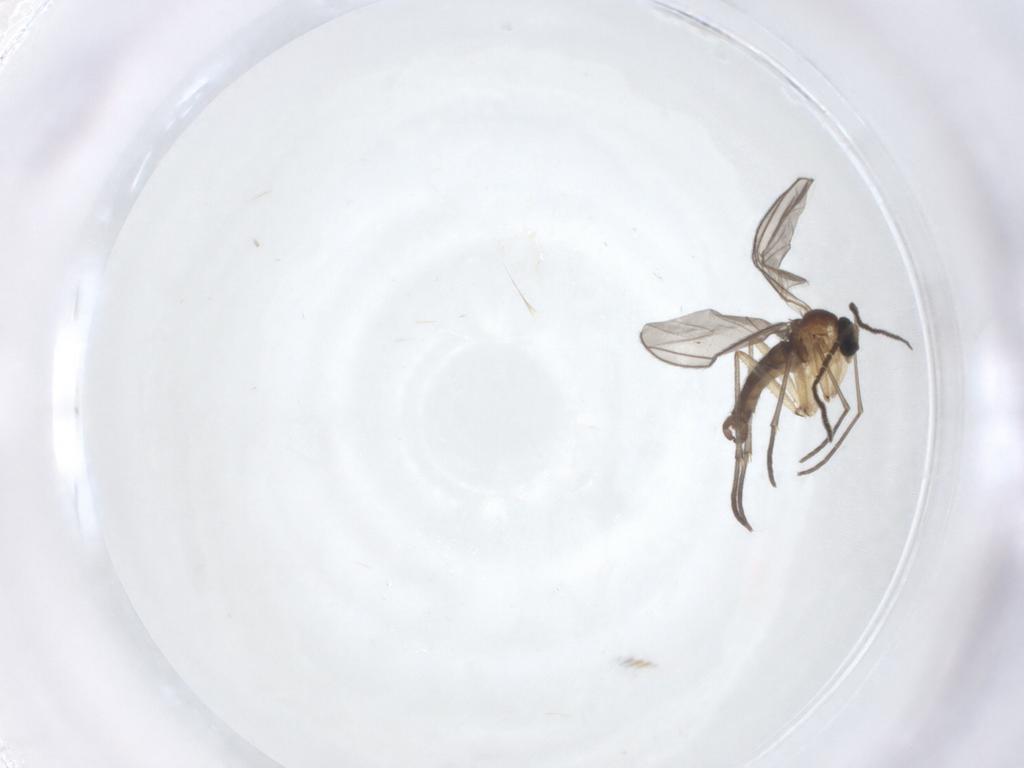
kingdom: Animalia
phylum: Arthropoda
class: Insecta
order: Diptera
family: Sciaridae
